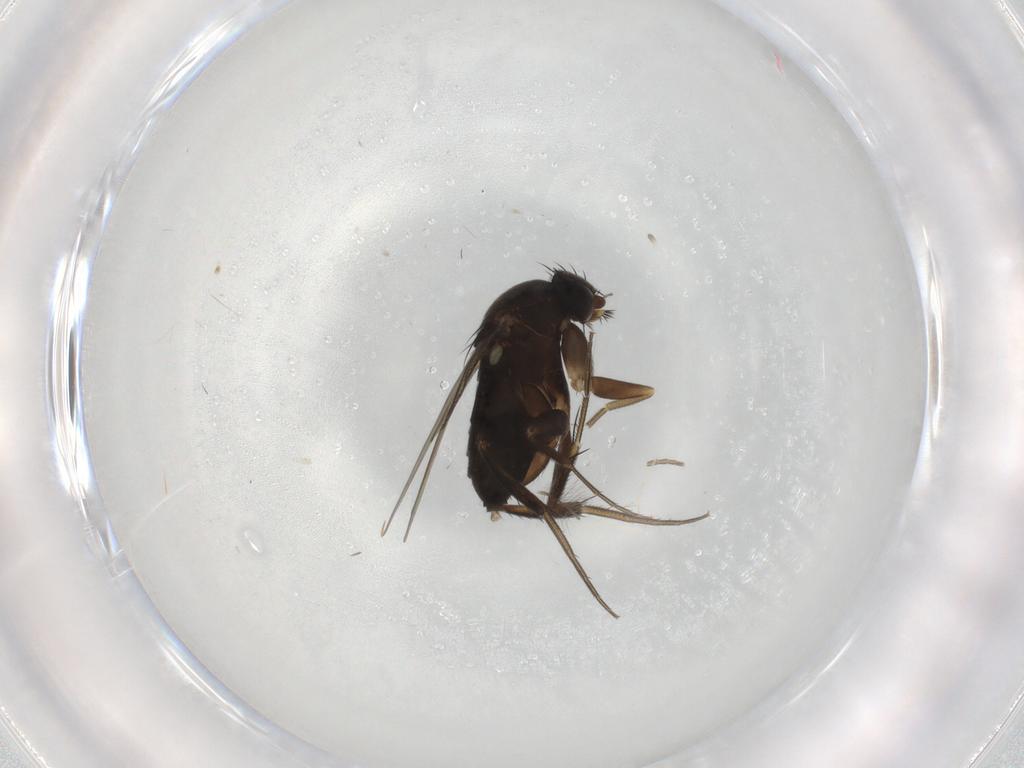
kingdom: Animalia
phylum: Arthropoda
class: Insecta
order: Diptera
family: Phoridae
